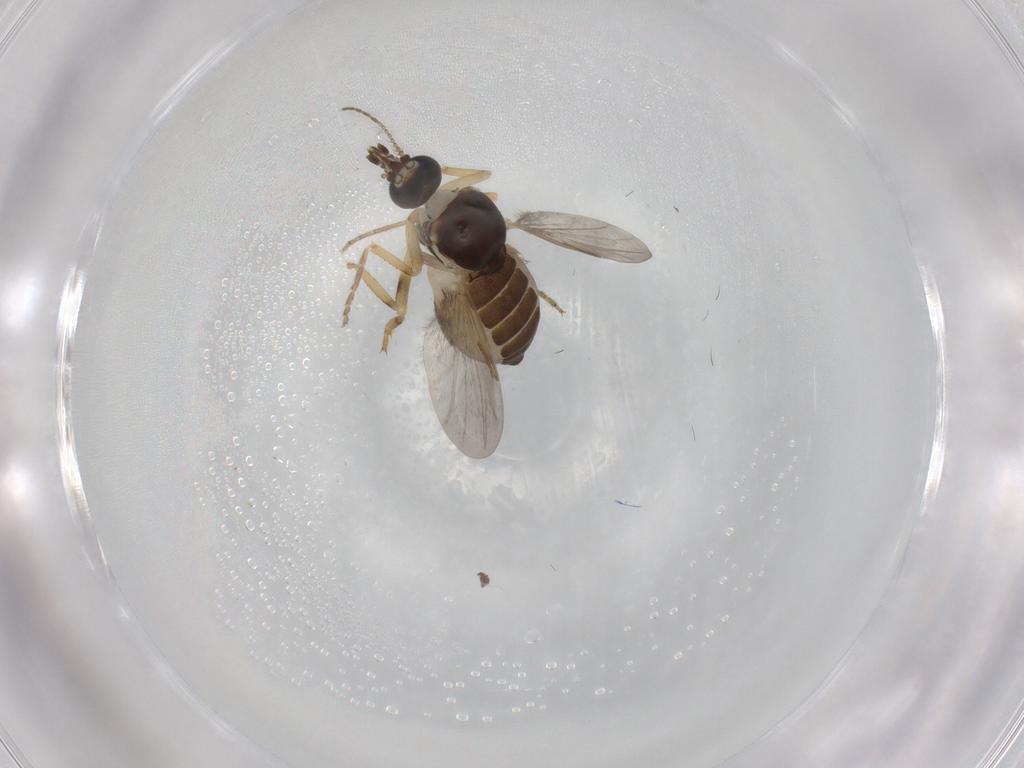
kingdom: Animalia
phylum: Arthropoda
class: Insecta
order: Diptera
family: Ceratopogonidae
